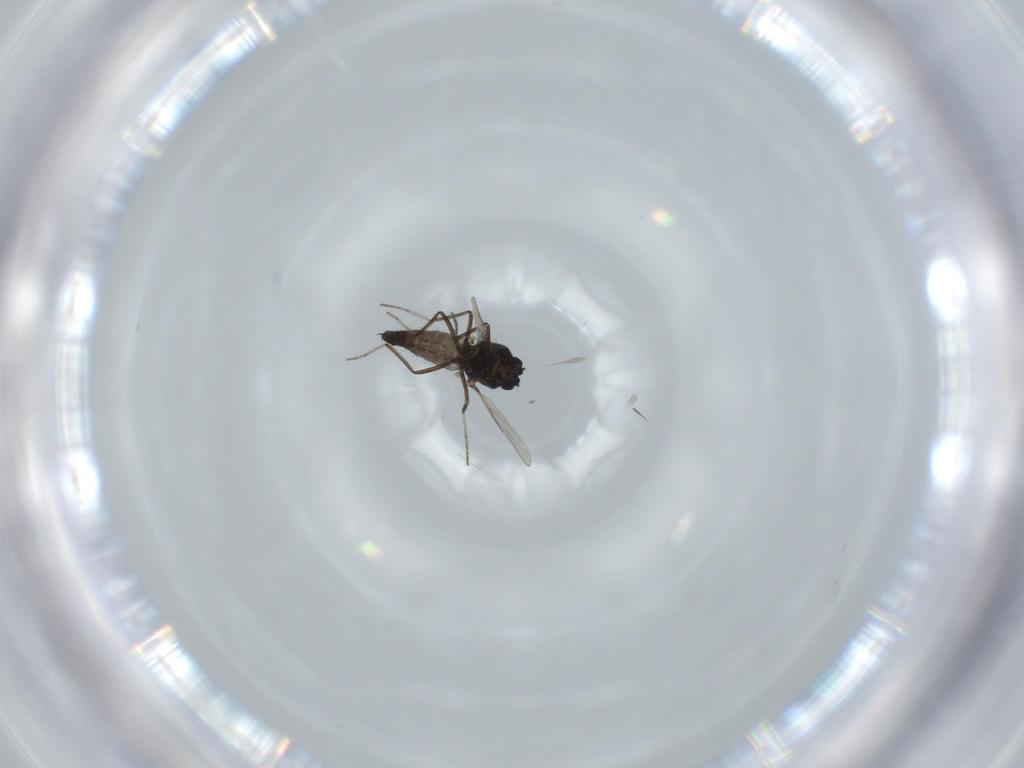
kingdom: Animalia
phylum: Arthropoda
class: Insecta
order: Diptera
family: Ceratopogonidae
